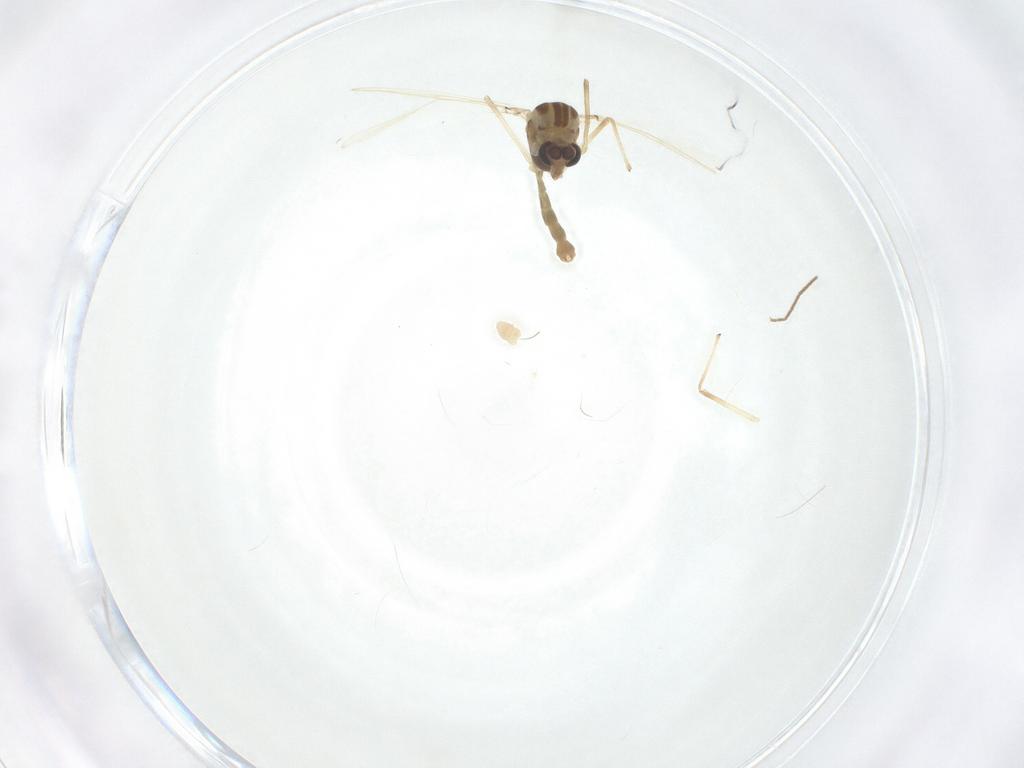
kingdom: Animalia
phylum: Arthropoda
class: Insecta
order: Diptera
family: Chironomidae
